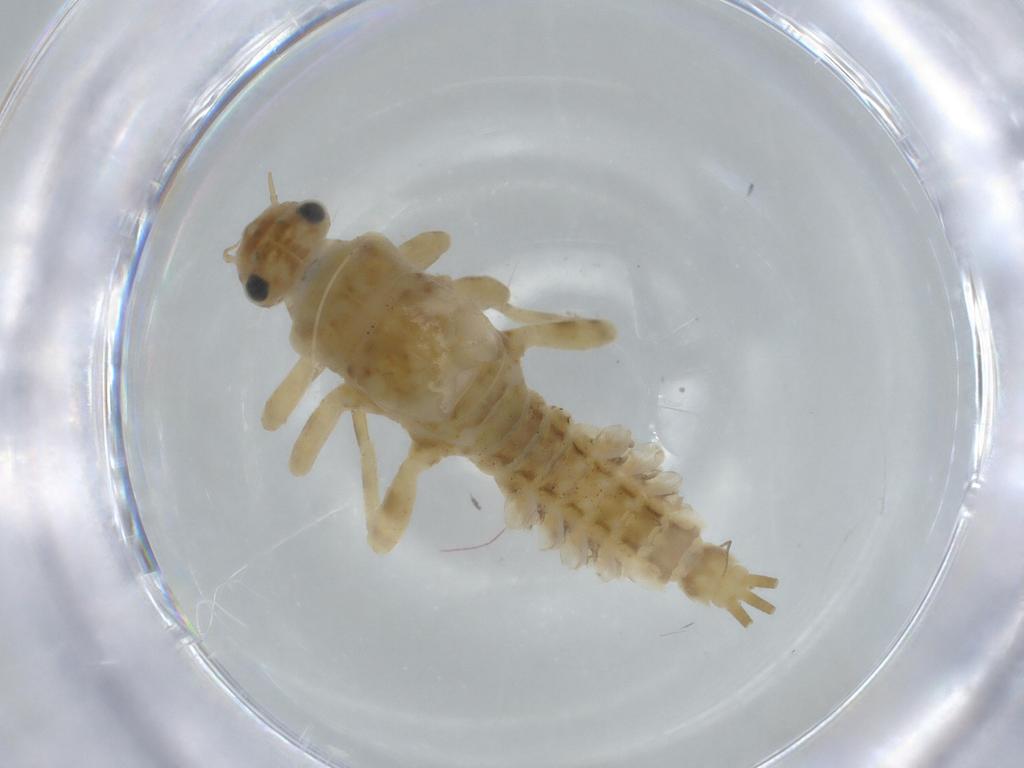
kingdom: Animalia
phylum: Arthropoda
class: Insecta
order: Ephemeroptera
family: Ephemerellidae
